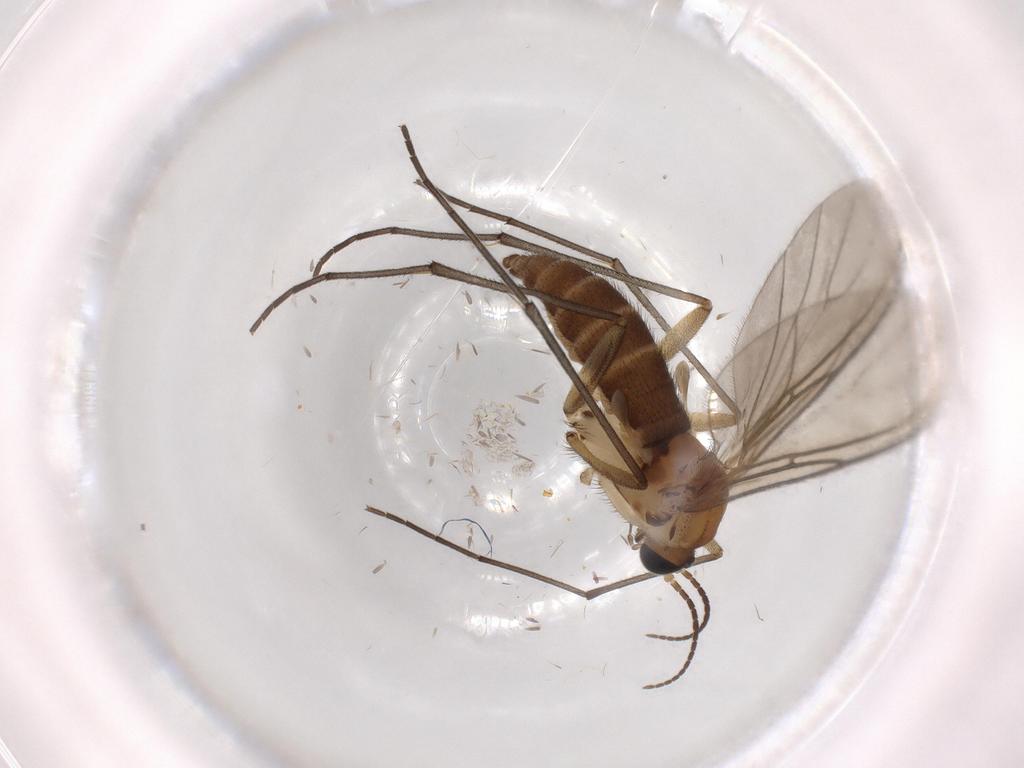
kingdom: Animalia
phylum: Arthropoda
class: Insecta
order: Diptera
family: Sciaridae
